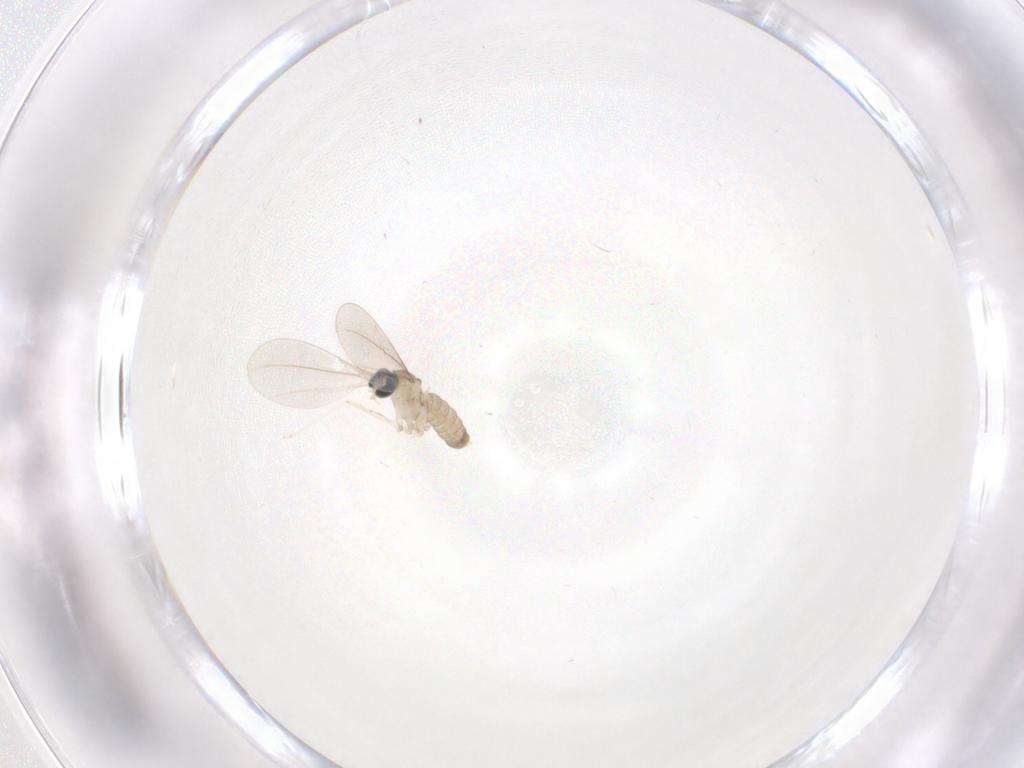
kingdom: Animalia
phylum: Arthropoda
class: Insecta
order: Diptera
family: Cecidomyiidae
